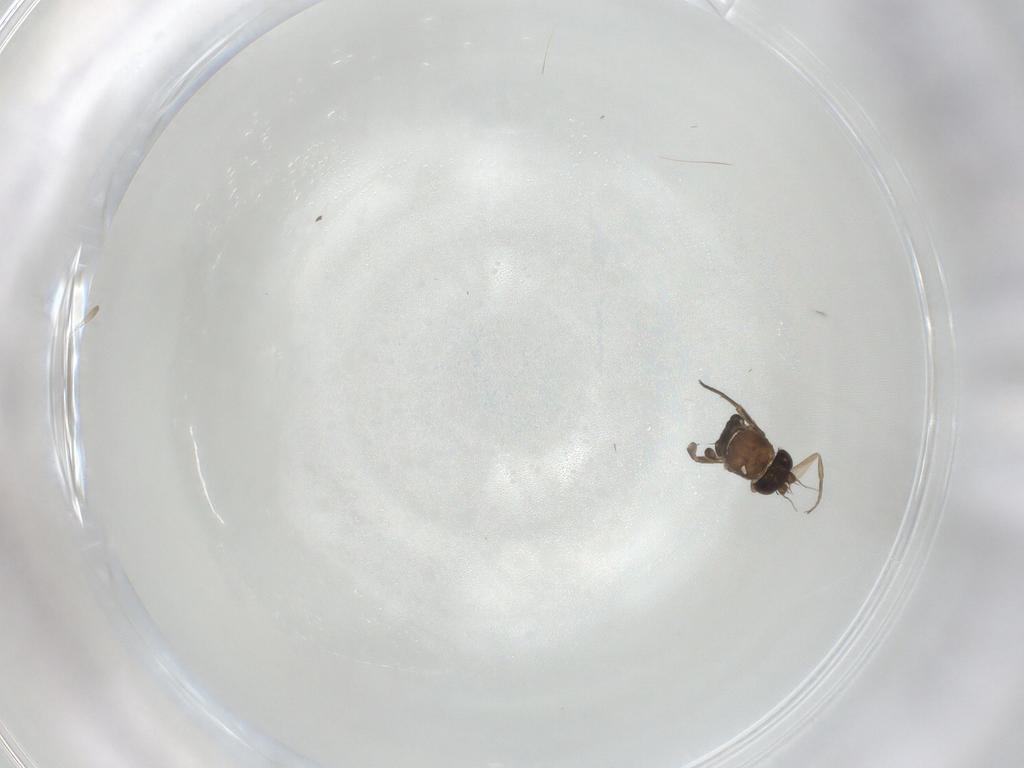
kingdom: Animalia
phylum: Arthropoda
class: Insecta
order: Diptera
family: Phoridae
